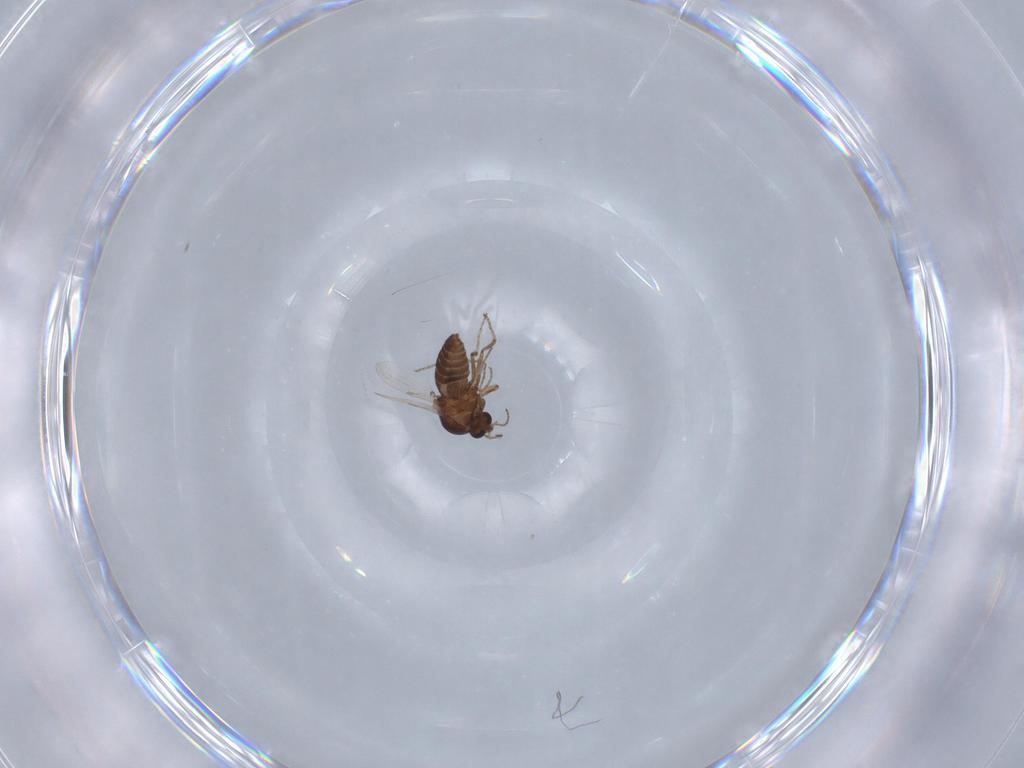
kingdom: Animalia
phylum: Arthropoda
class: Insecta
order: Diptera
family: Ceratopogonidae
